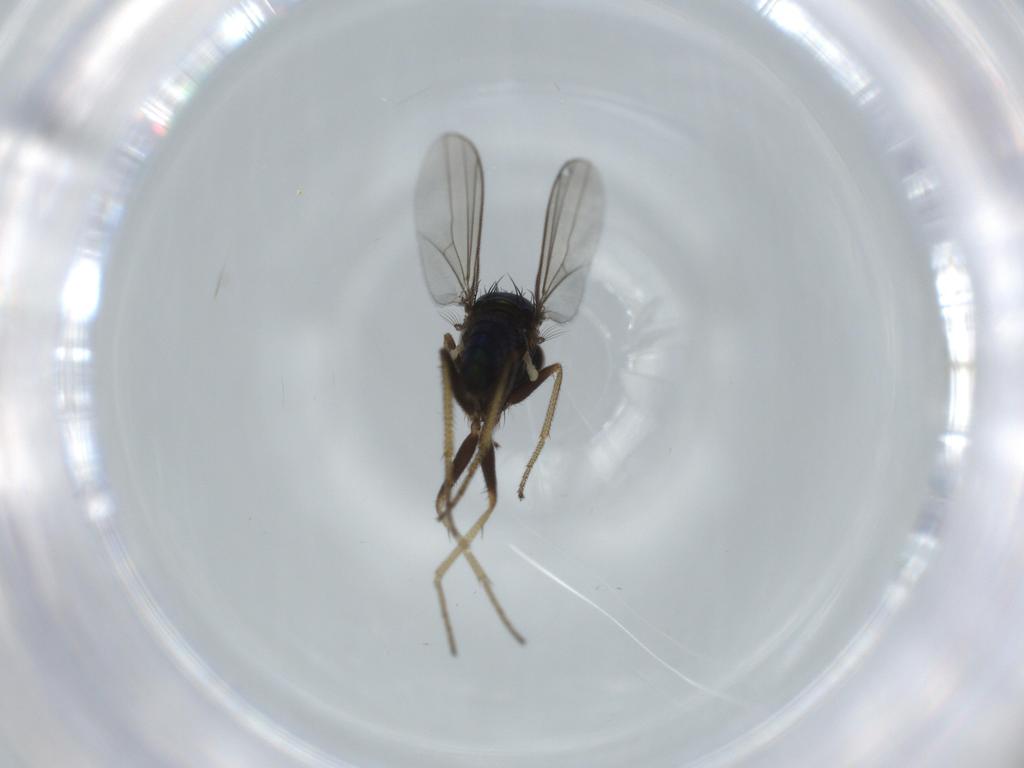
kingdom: Animalia
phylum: Arthropoda
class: Insecta
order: Diptera
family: Dolichopodidae
